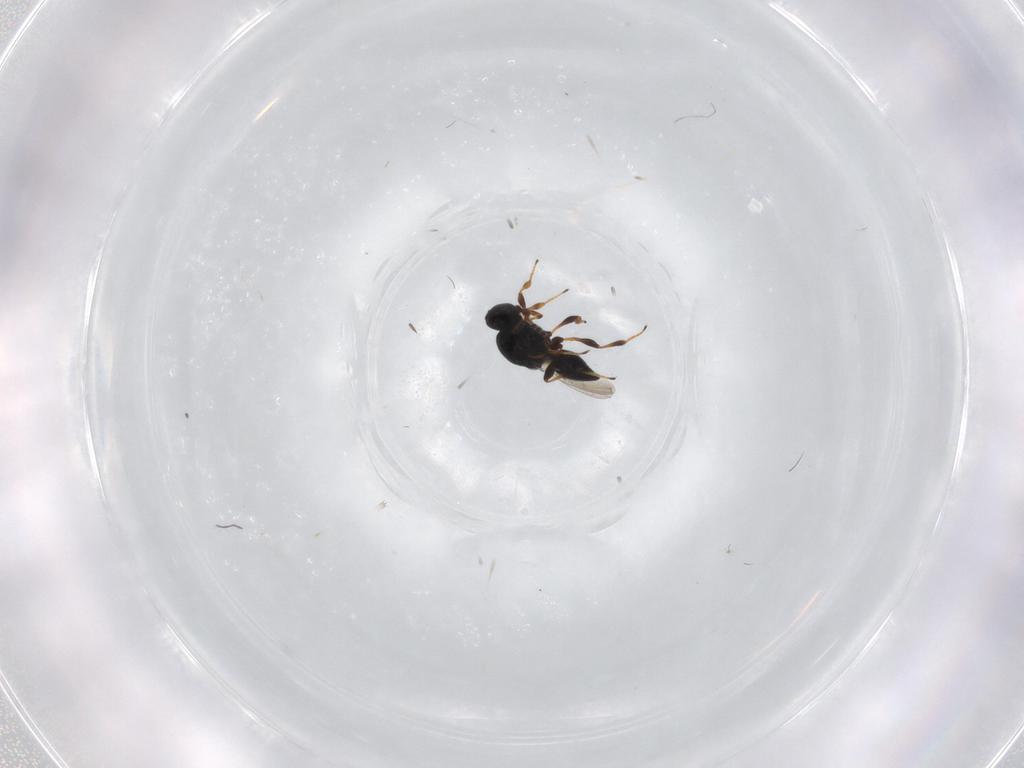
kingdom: Animalia
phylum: Arthropoda
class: Insecta
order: Hymenoptera
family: Platygastridae
